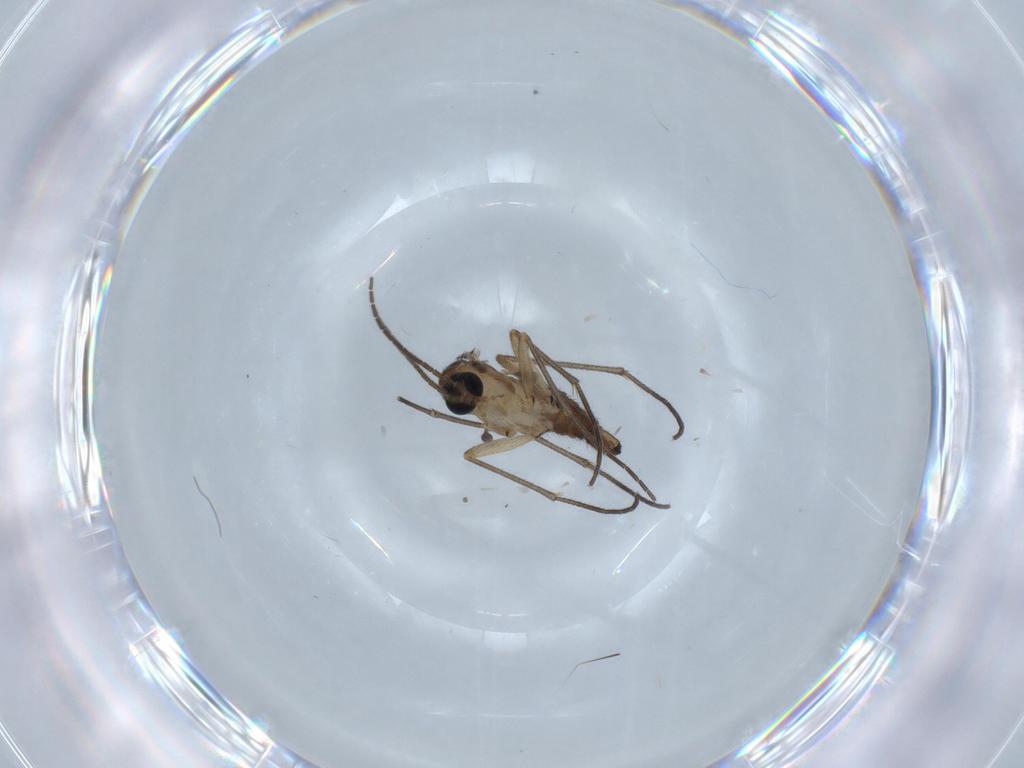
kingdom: Animalia
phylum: Arthropoda
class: Insecta
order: Diptera
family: Sciaridae
